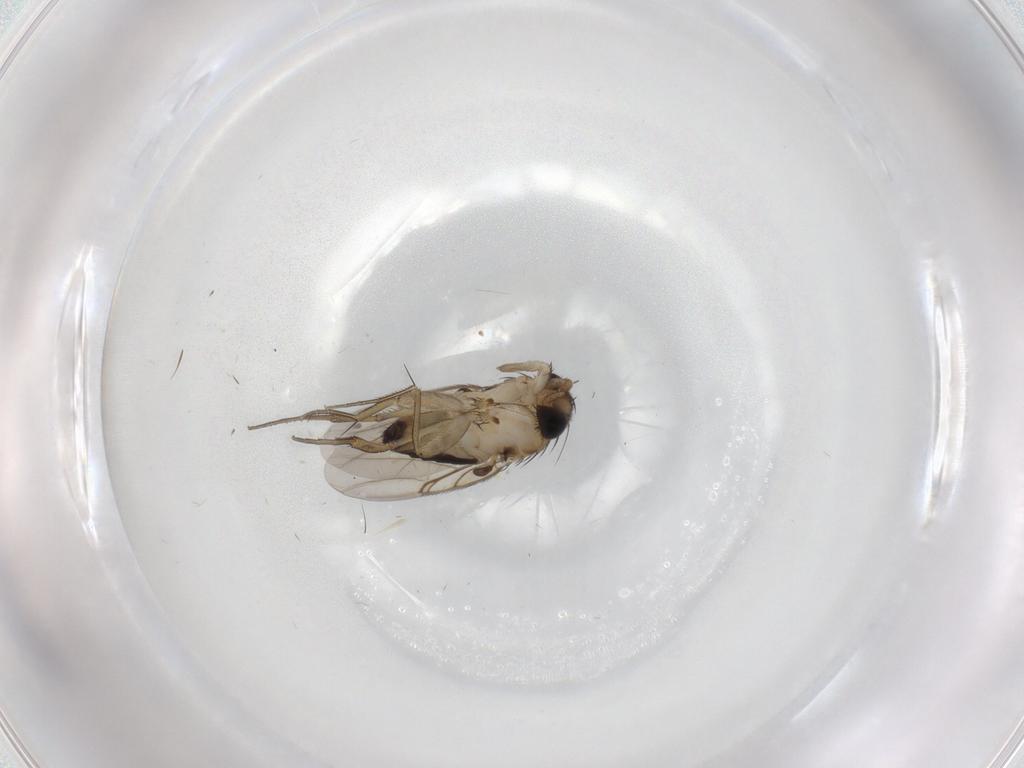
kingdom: Animalia
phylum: Arthropoda
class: Insecta
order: Diptera
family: Phoridae
